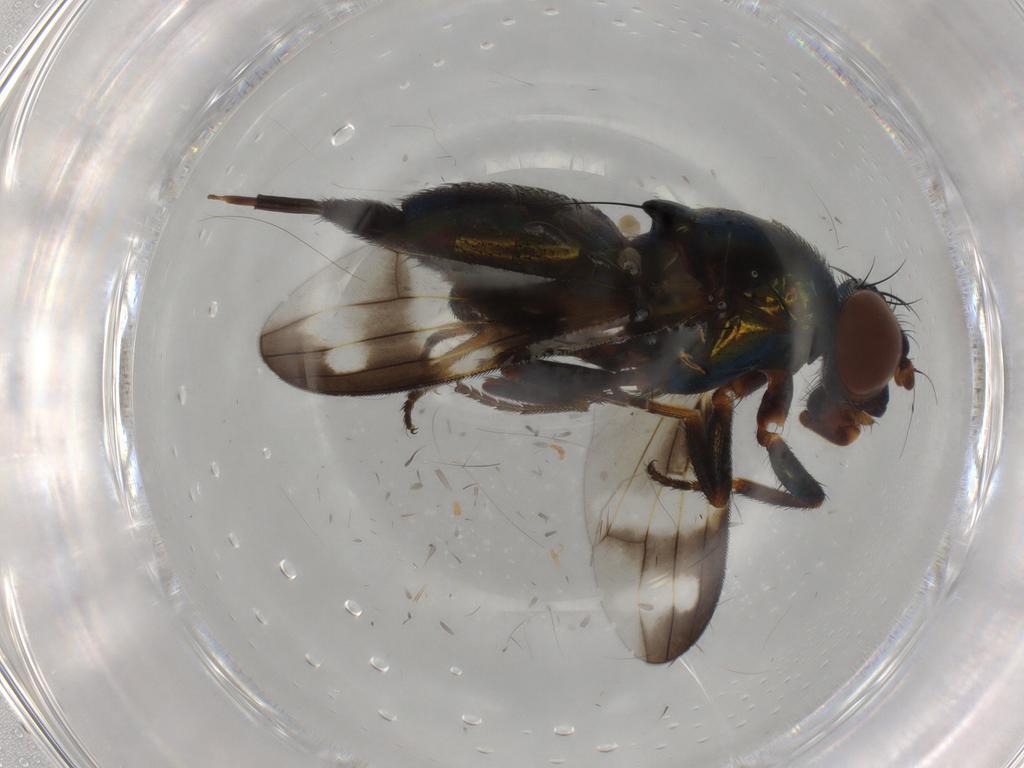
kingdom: Animalia
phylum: Arthropoda
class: Insecta
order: Diptera
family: Ulidiidae
